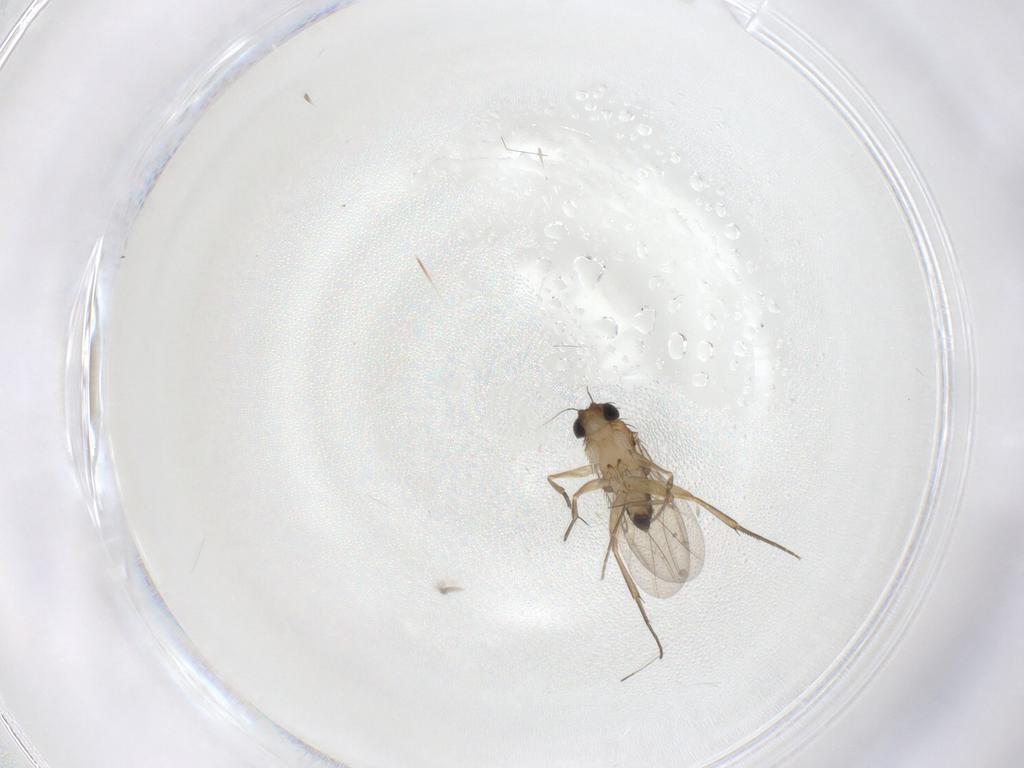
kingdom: Animalia
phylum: Arthropoda
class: Insecta
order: Diptera
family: Phoridae
